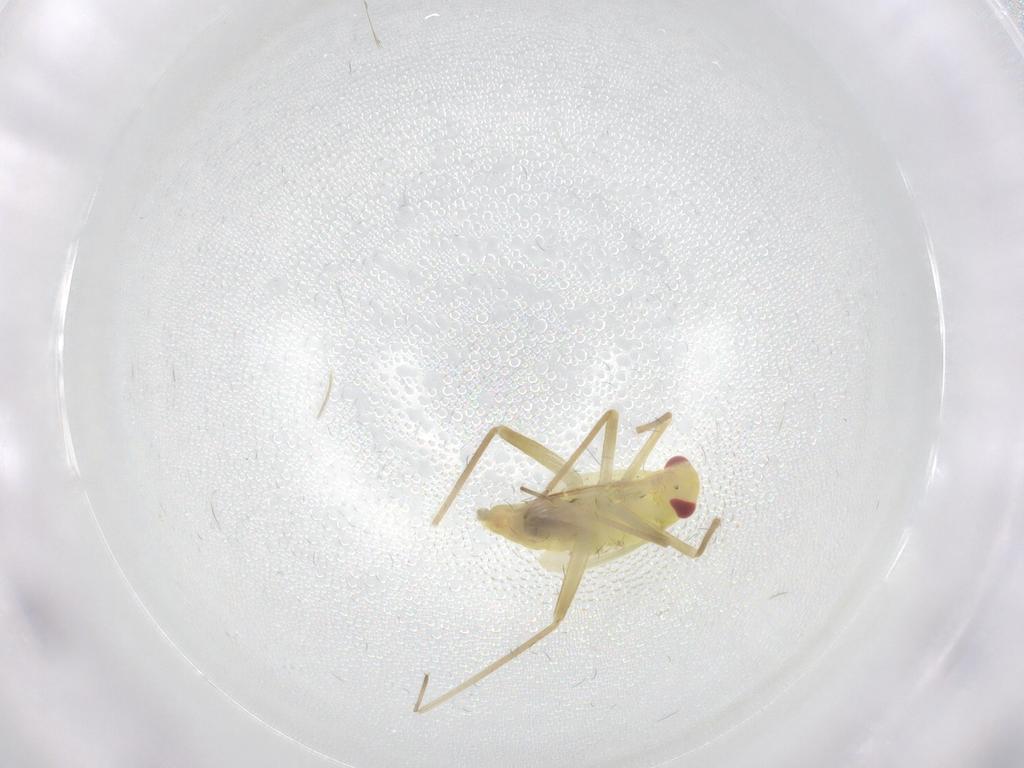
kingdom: Animalia
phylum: Arthropoda
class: Insecta
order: Hemiptera
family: Miridae
